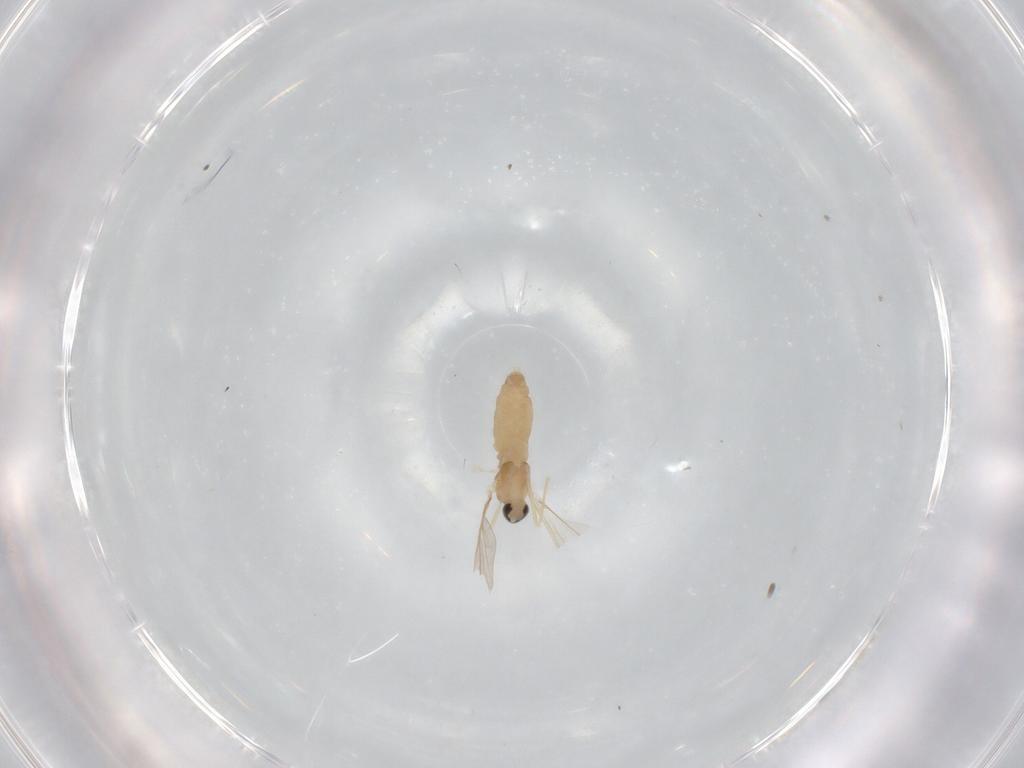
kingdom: Animalia
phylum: Arthropoda
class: Insecta
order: Diptera
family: Cecidomyiidae
